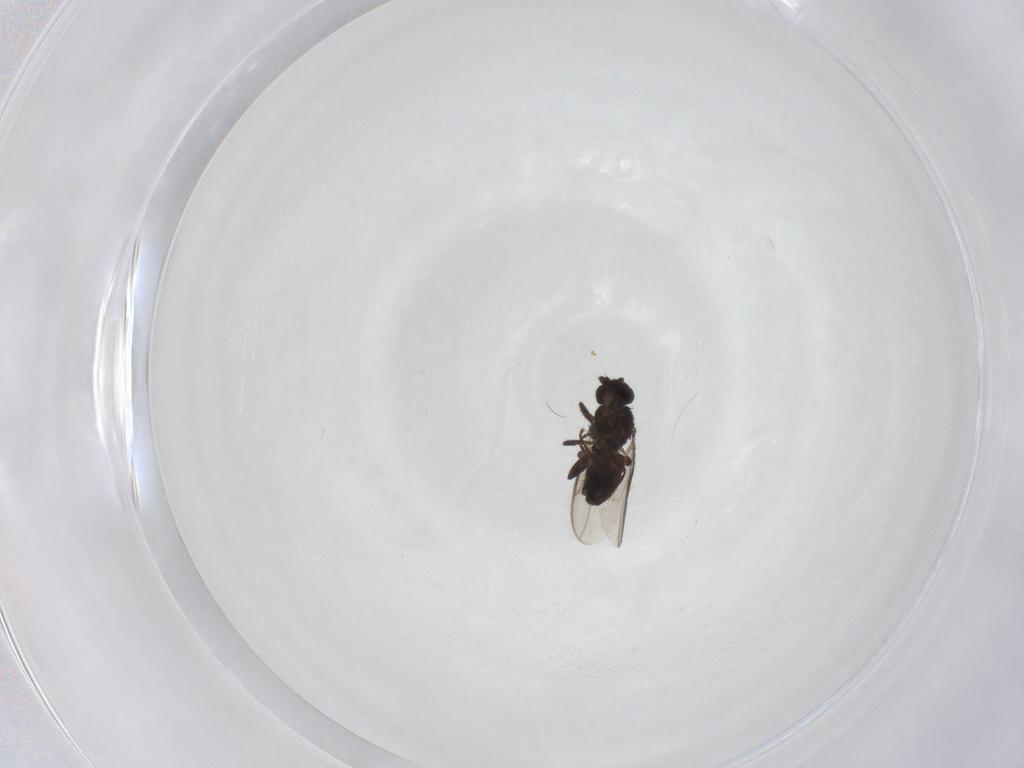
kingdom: Animalia
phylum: Arthropoda
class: Insecta
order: Diptera
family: Sphaeroceridae
